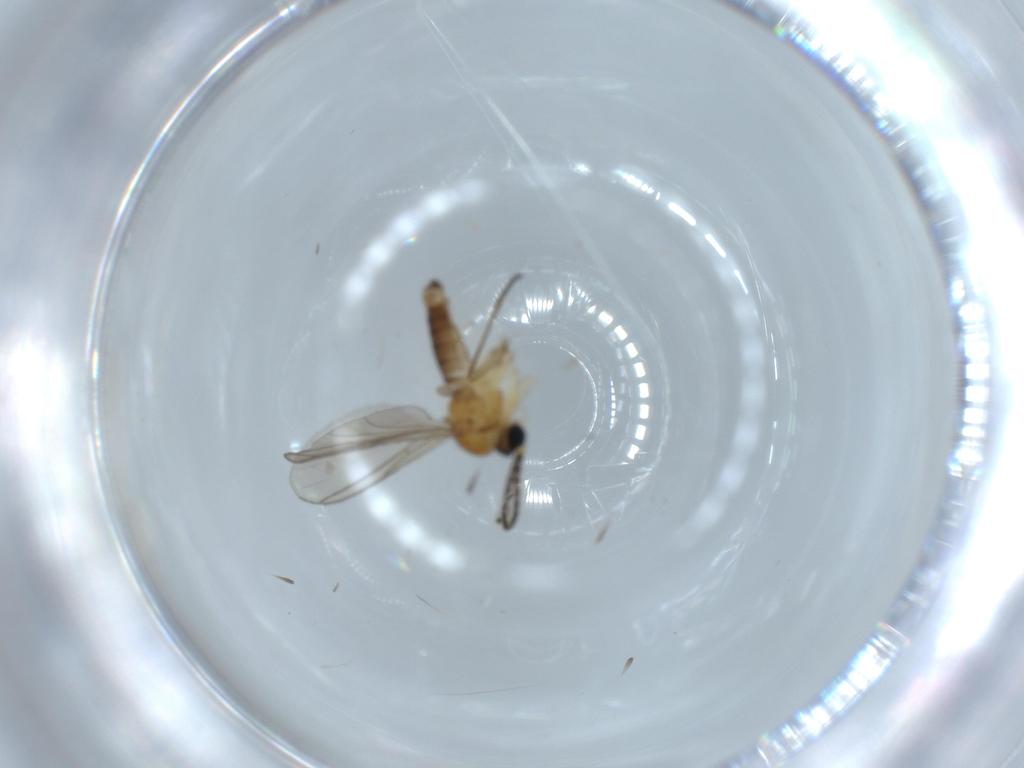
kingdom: Animalia
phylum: Arthropoda
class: Insecta
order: Diptera
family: Sciaridae
